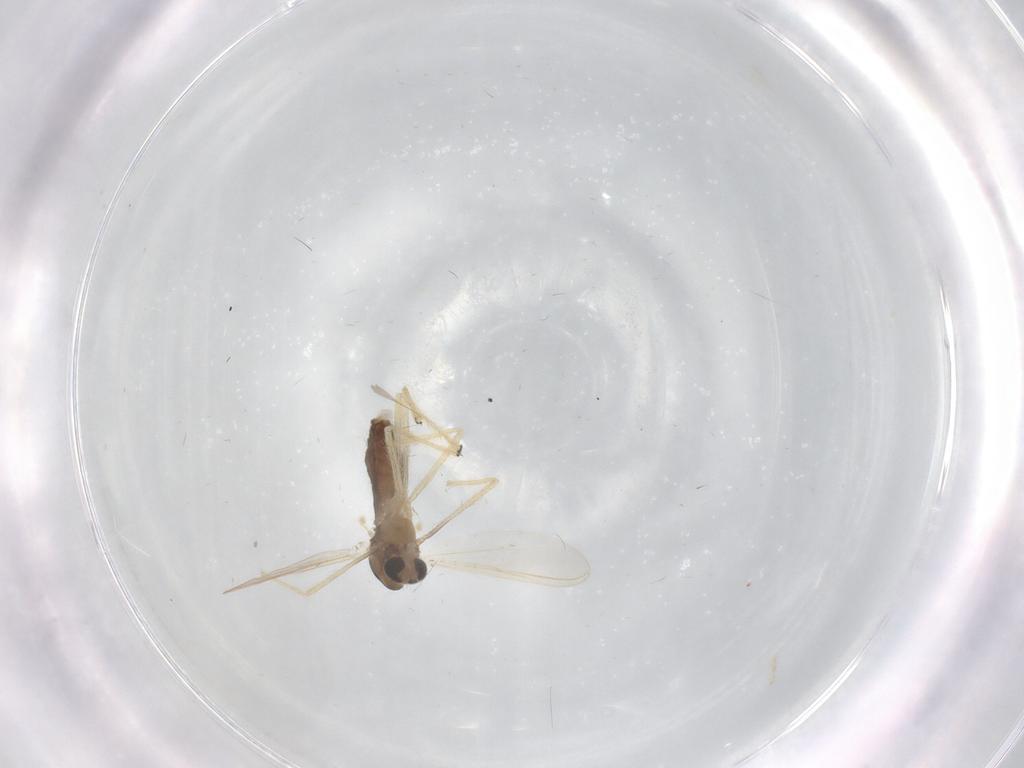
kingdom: Animalia
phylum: Arthropoda
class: Insecta
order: Diptera
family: Chironomidae
